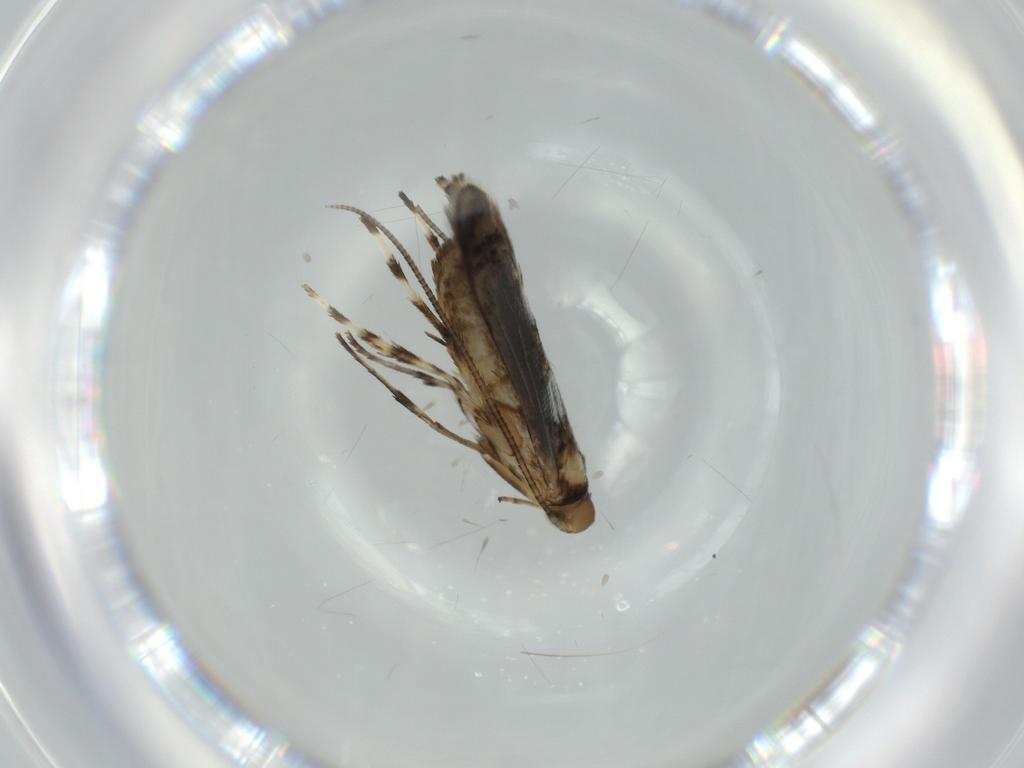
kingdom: Animalia
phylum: Arthropoda
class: Insecta
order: Lepidoptera
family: Gracillariidae
